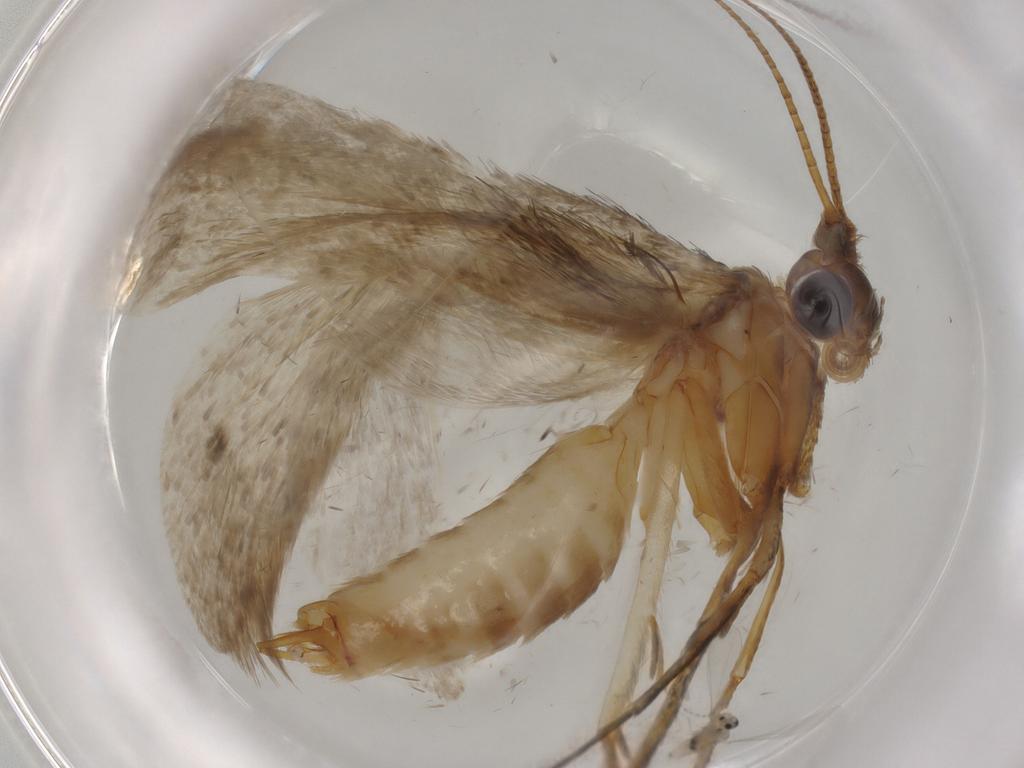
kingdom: Animalia
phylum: Arthropoda
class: Insecta
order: Lepidoptera
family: Adelidae
